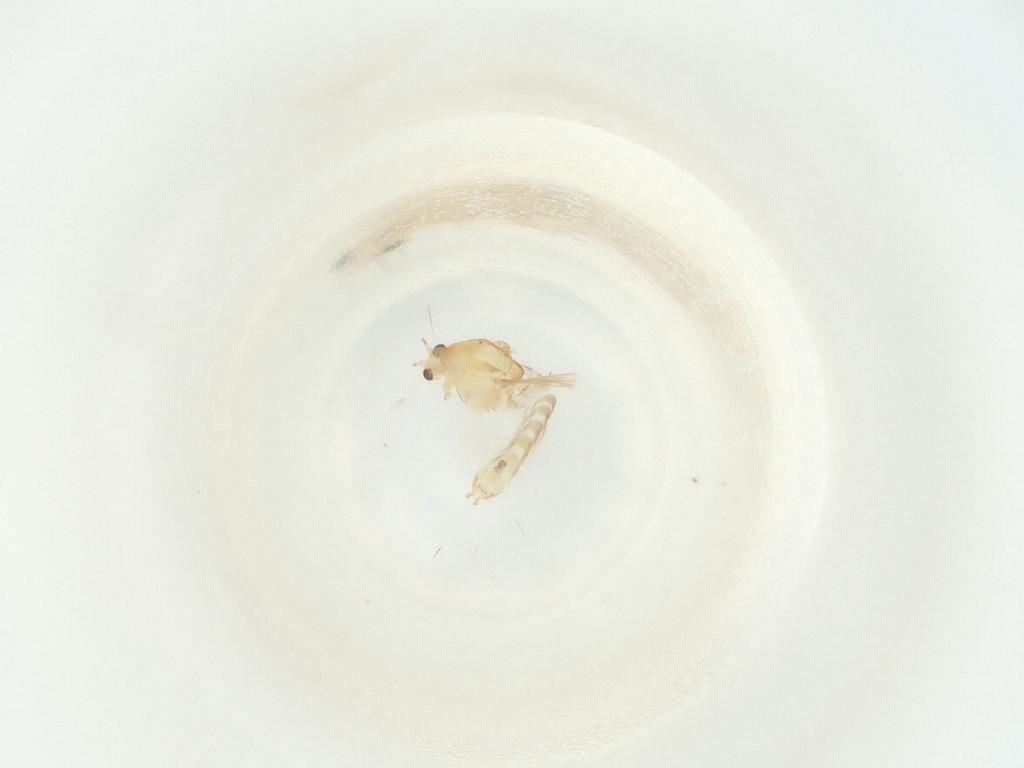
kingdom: Animalia
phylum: Arthropoda
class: Insecta
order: Diptera
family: Chironomidae
